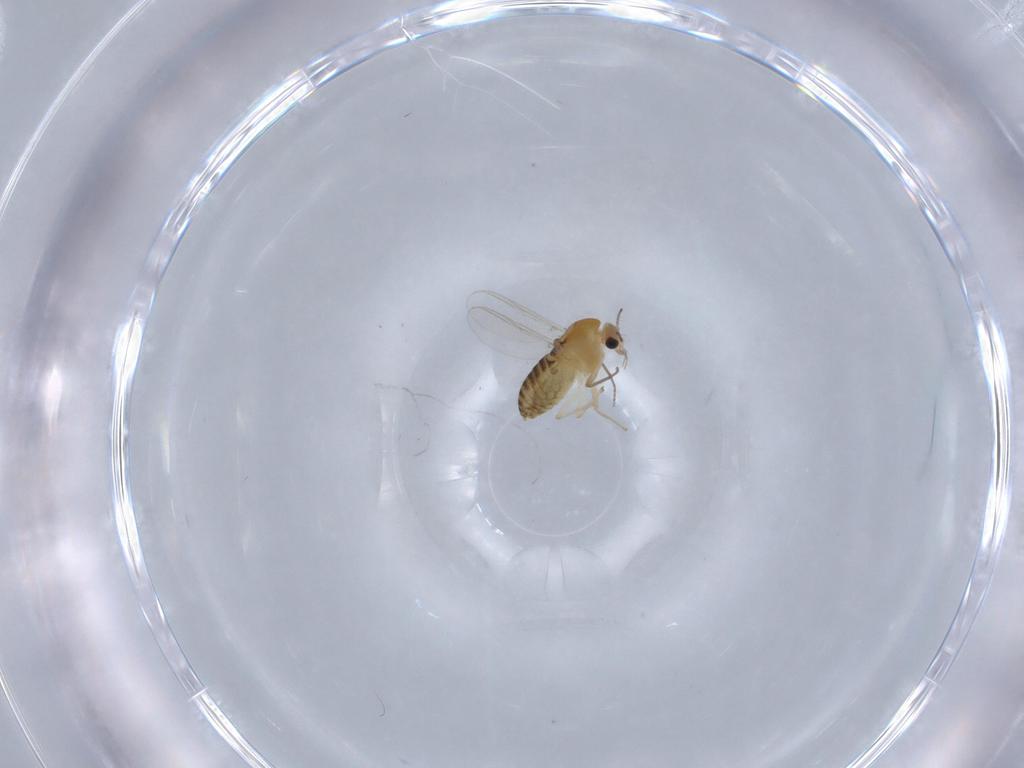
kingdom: Animalia
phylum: Arthropoda
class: Insecta
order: Diptera
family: Chironomidae
